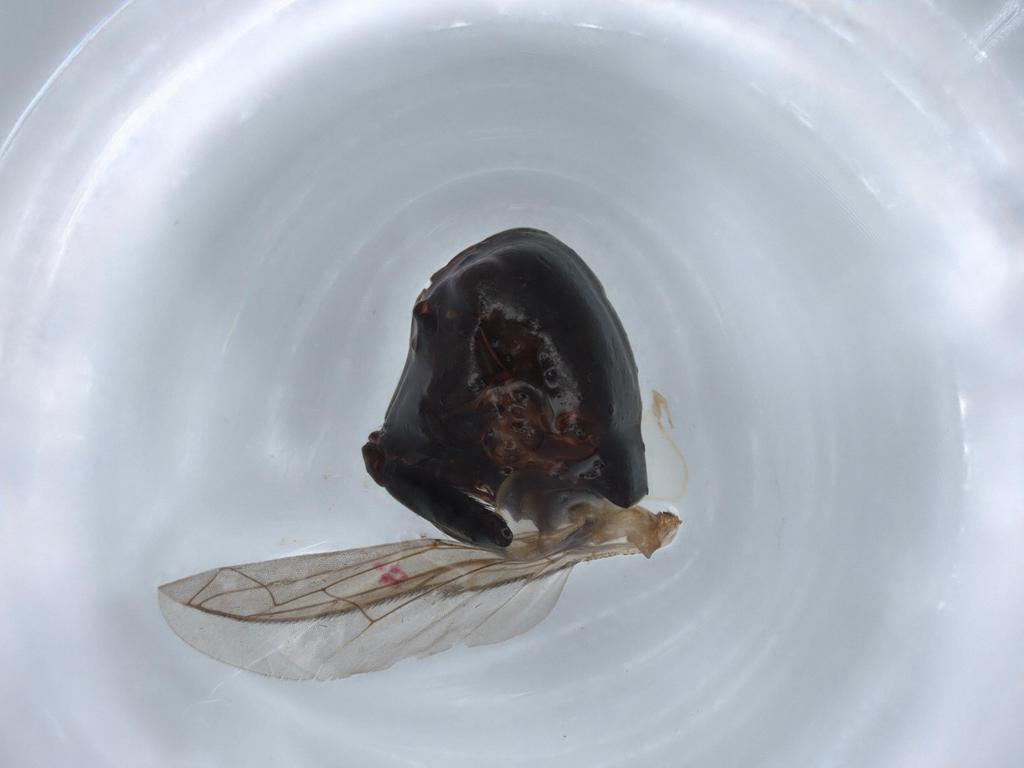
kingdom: Animalia
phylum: Arthropoda
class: Insecta
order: Diptera
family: Sarcophagidae
